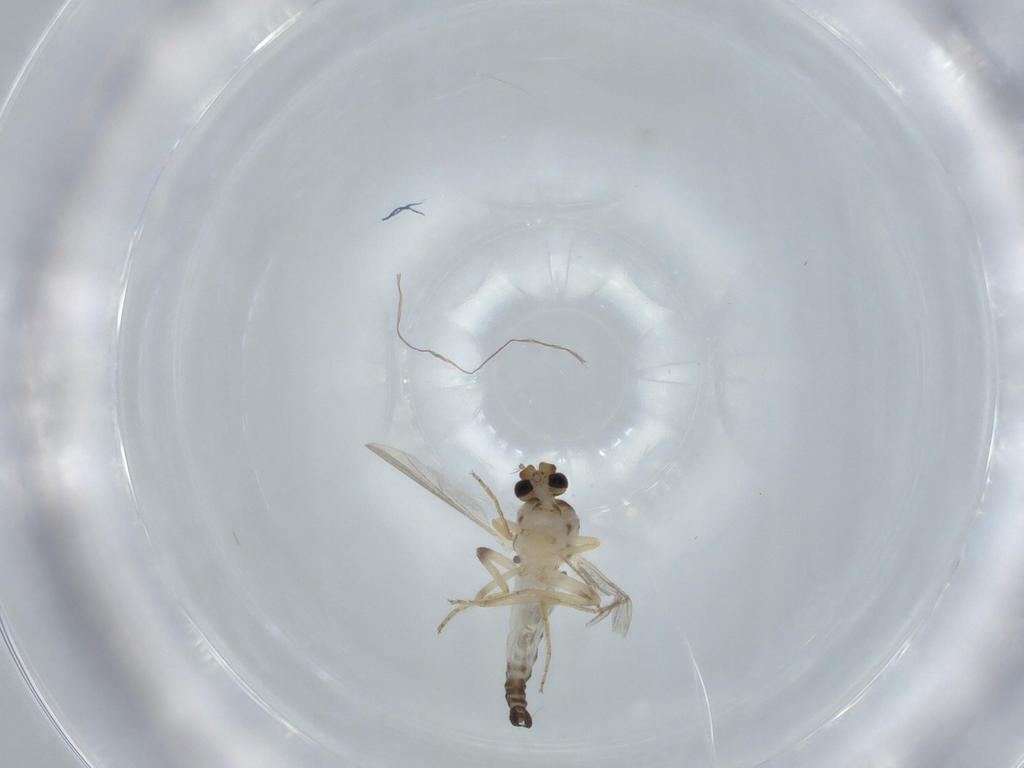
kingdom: Animalia
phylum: Arthropoda
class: Insecta
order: Diptera
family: Ceratopogonidae
